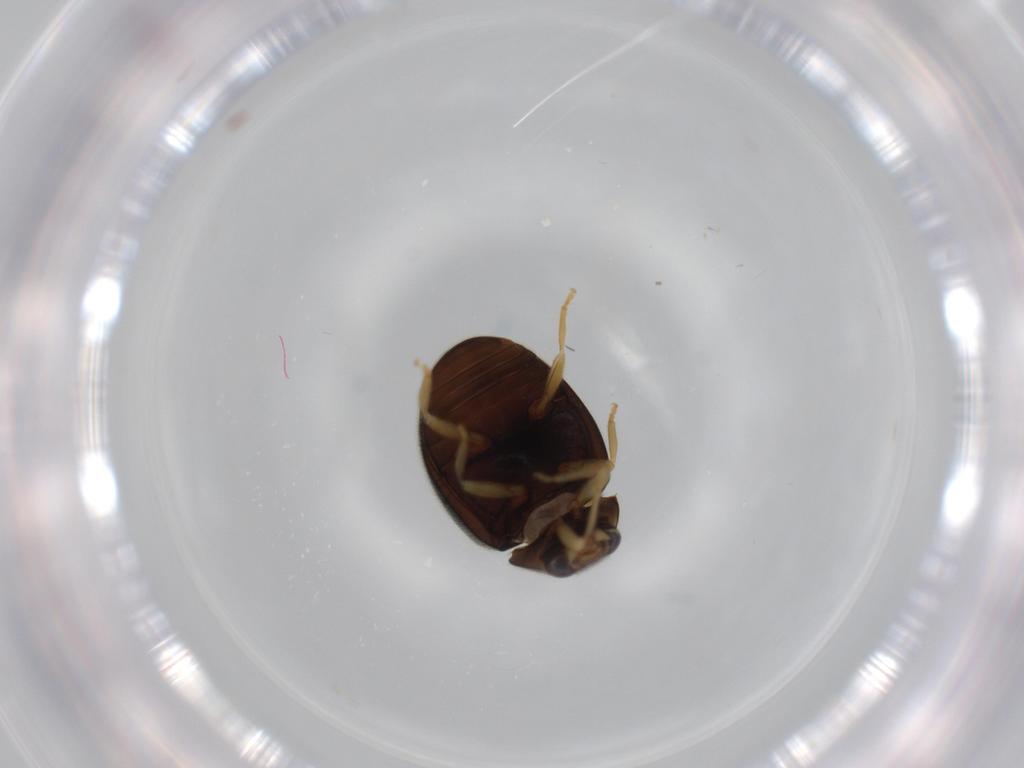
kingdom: Animalia
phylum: Arthropoda
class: Insecta
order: Coleoptera
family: Coccinellidae
